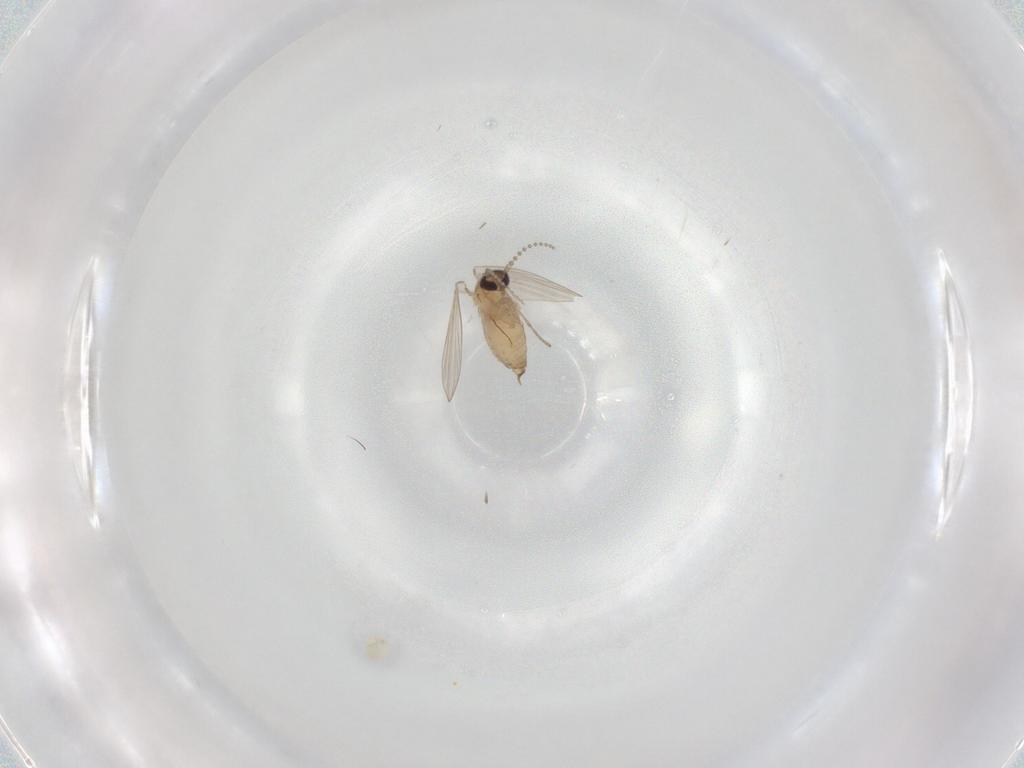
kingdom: Animalia
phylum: Arthropoda
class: Insecta
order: Diptera
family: Psychodidae
